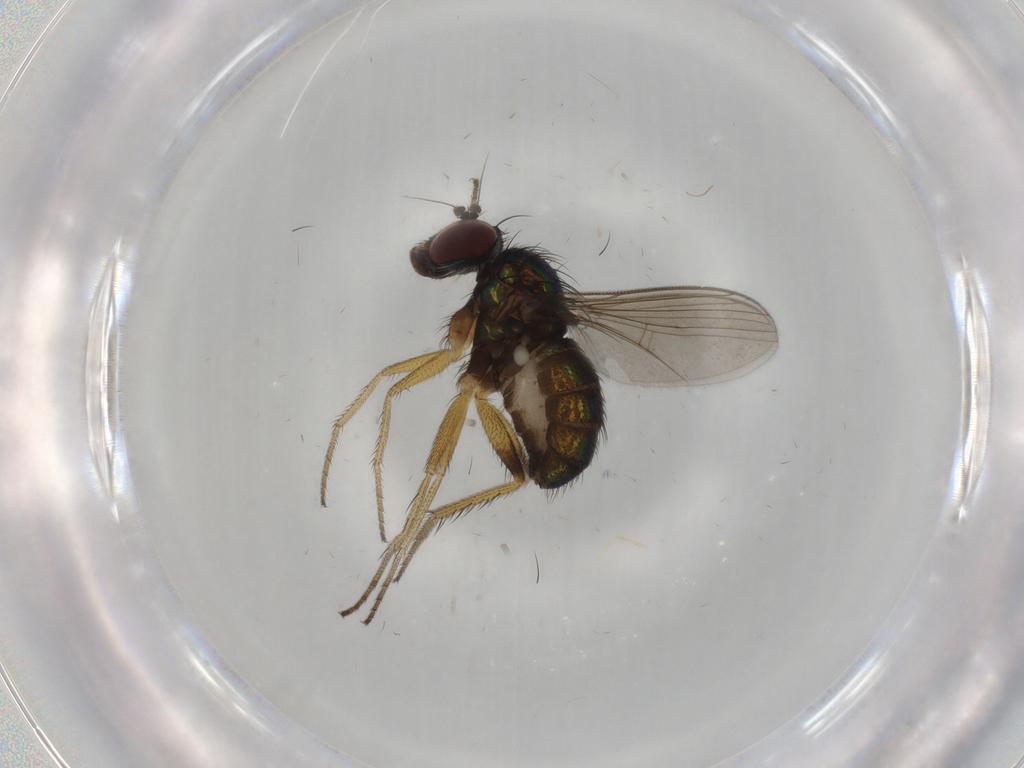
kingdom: Animalia
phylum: Arthropoda
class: Insecta
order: Diptera
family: Dolichopodidae
